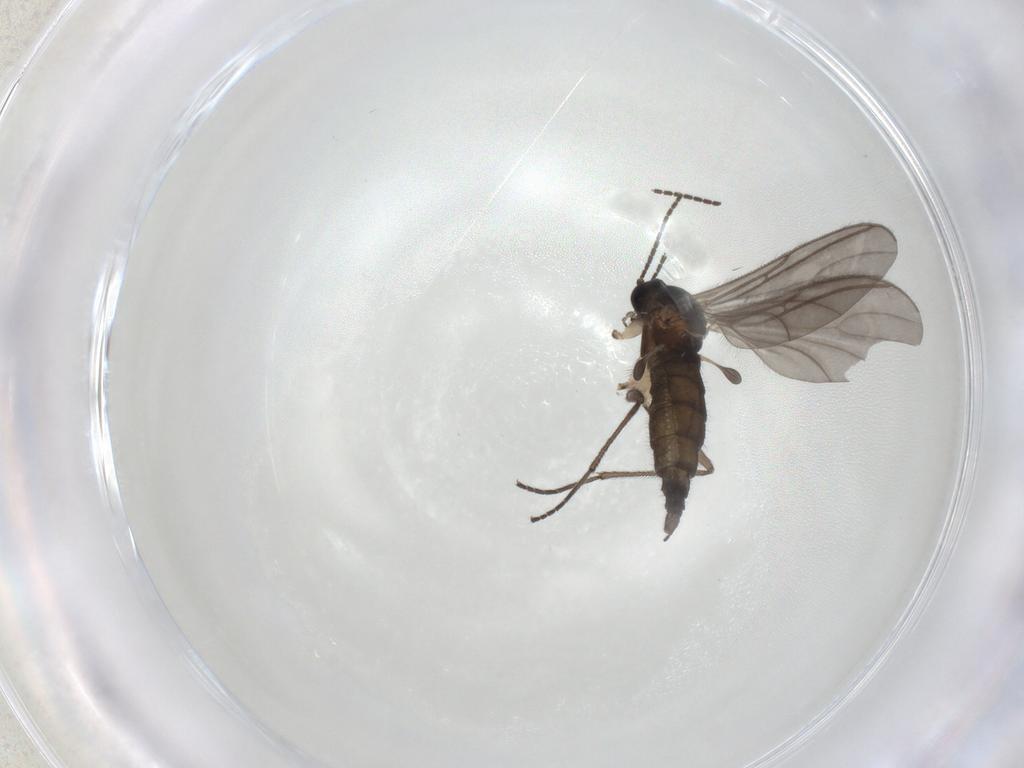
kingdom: Animalia
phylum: Arthropoda
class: Insecta
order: Diptera
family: Sciaridae
